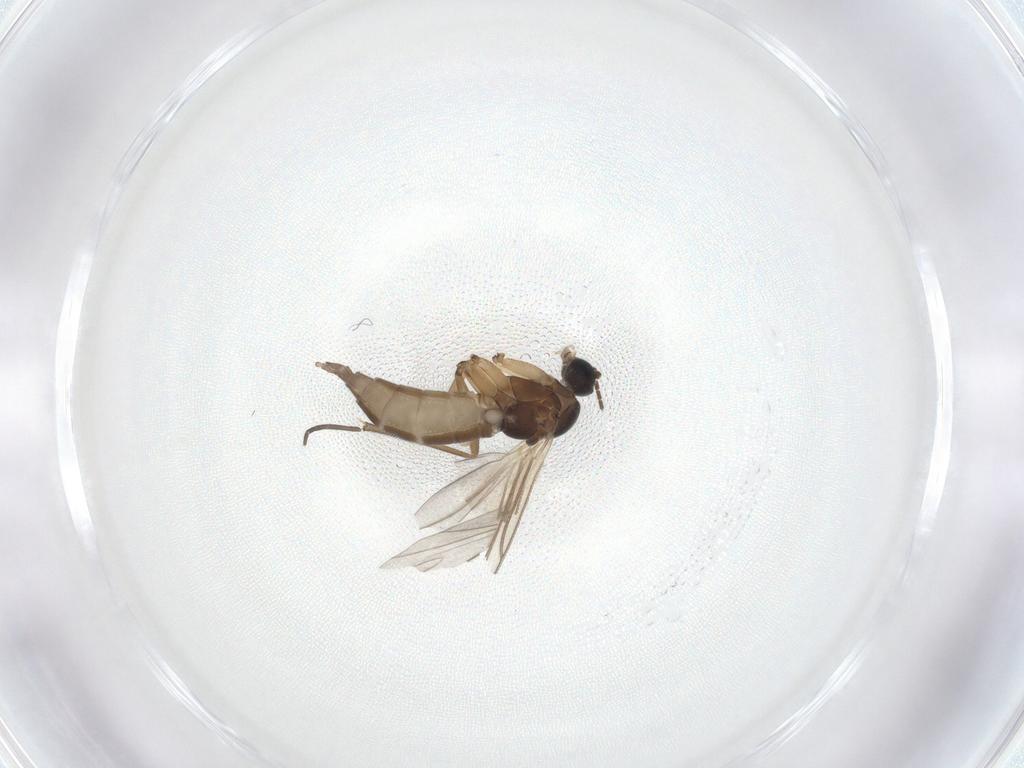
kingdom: Animalia
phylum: Arthropoda
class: Insecta
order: Diptera
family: Sciaridae
